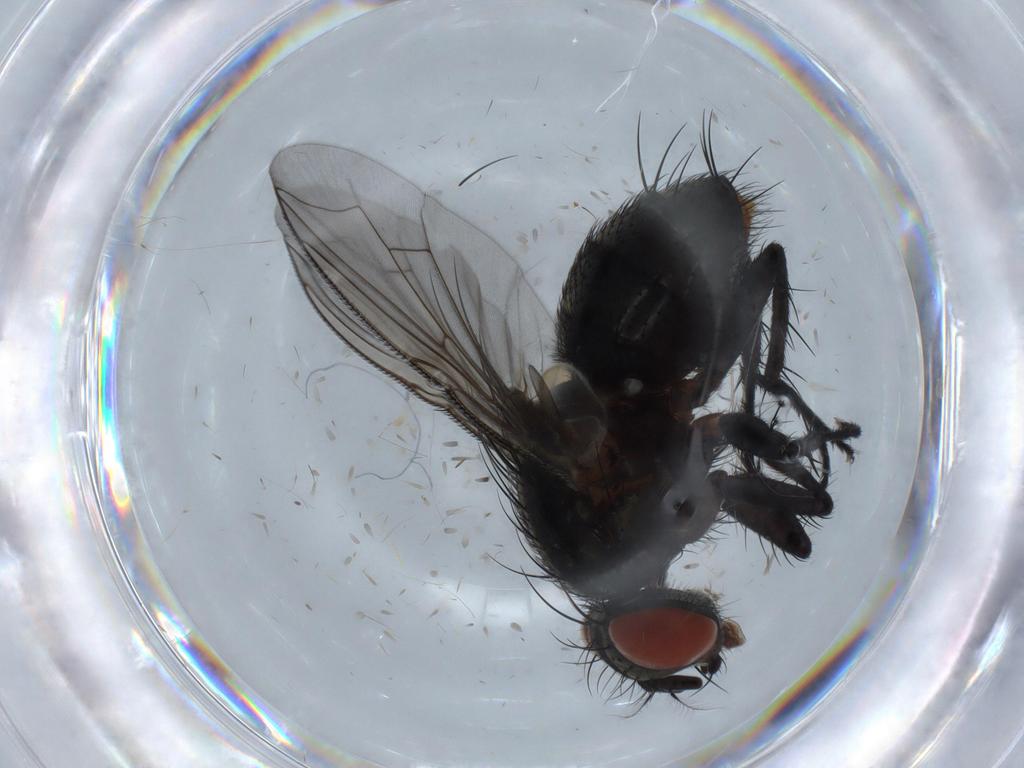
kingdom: Animalia
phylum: Arthropoda
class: Insecta
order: Diptera
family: Sarcophagidae
